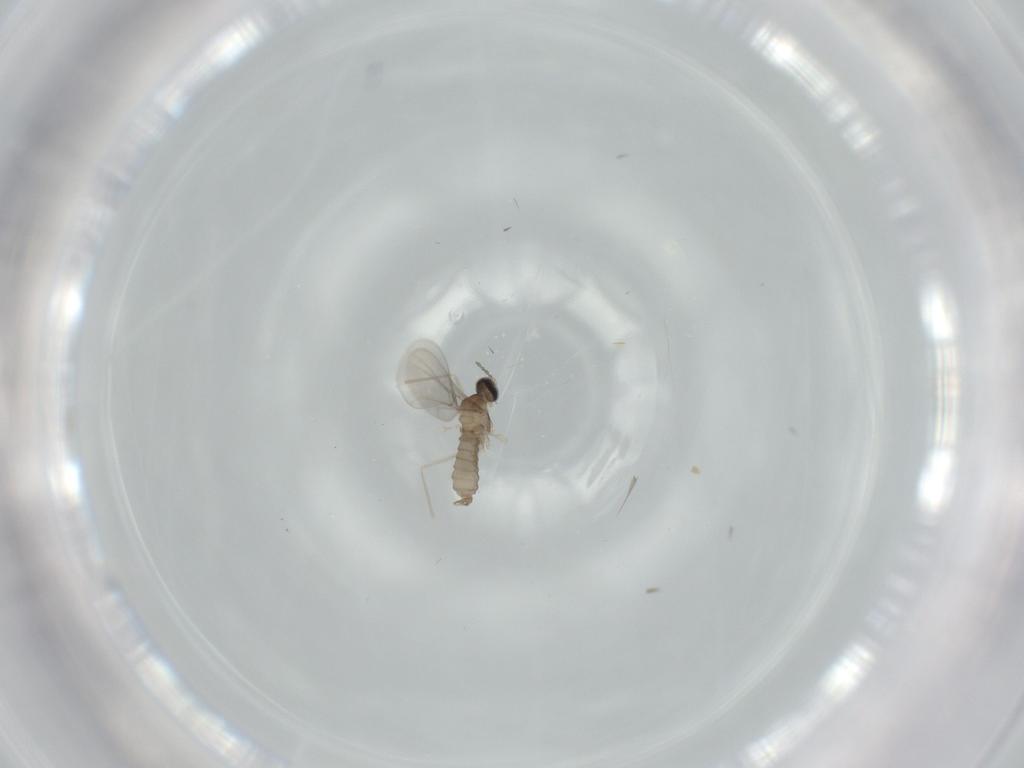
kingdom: Animalia
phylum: Arthropoda
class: Insecta
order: Diptera
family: Cecidomyiidae
